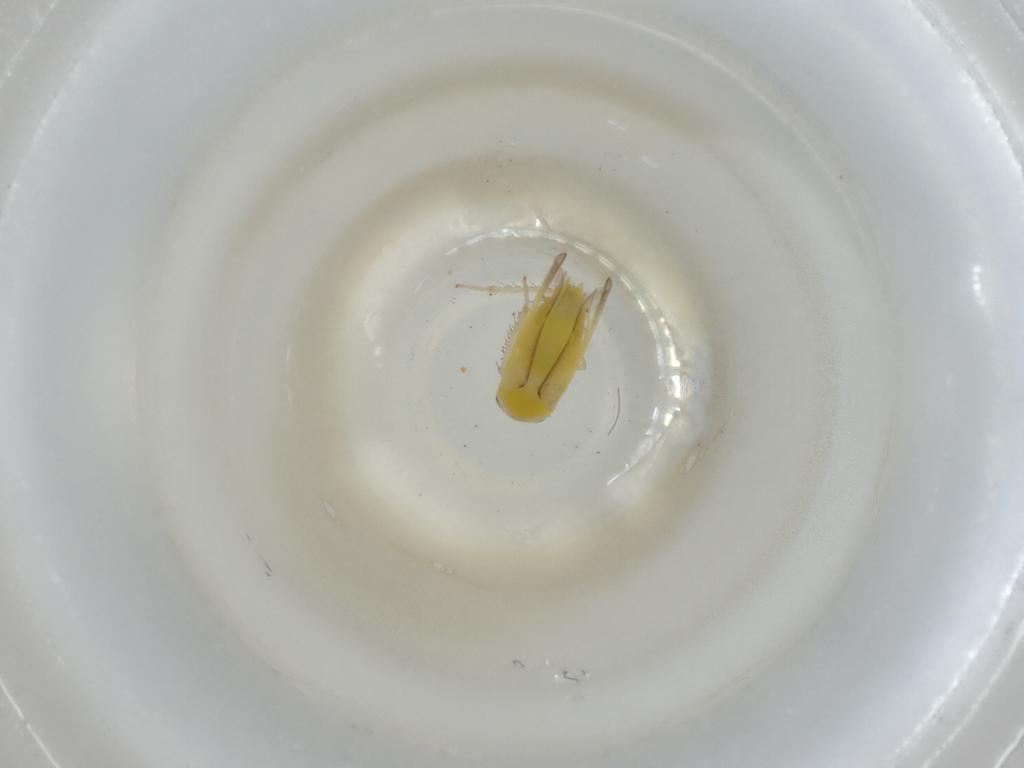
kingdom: Animalia
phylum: Arthropoda
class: Insecta
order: Hemiptera
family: Cicadellidae
